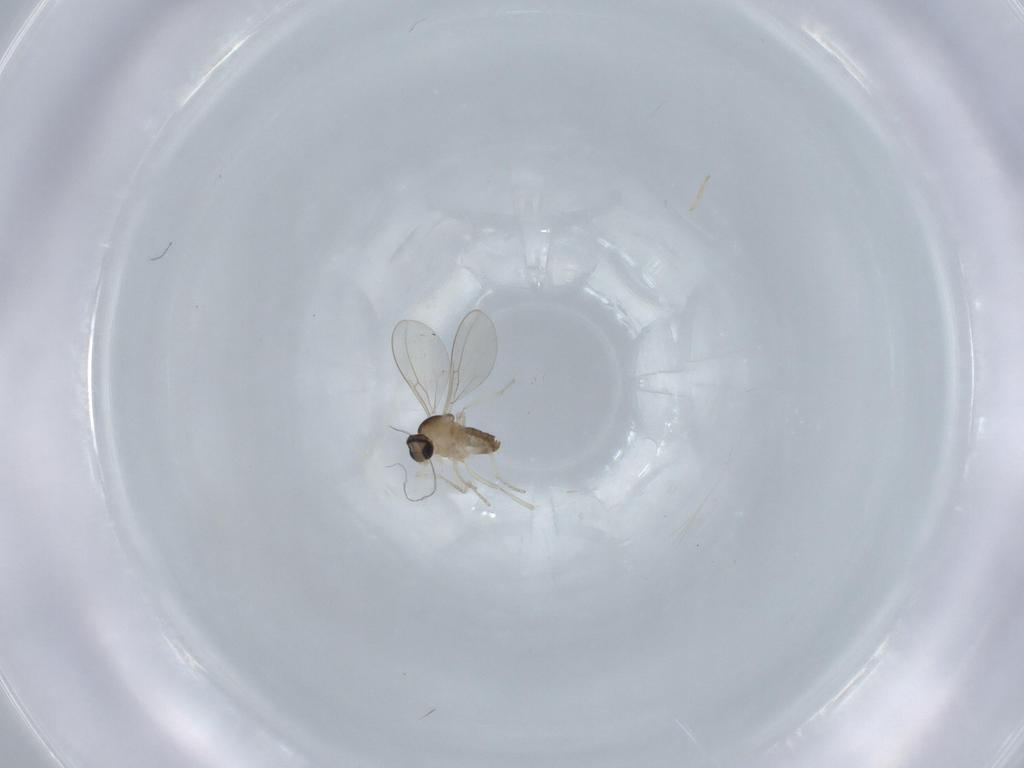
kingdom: Animalia
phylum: Arthropoda
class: Insecta
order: Diptera
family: Cecidomyiidae
